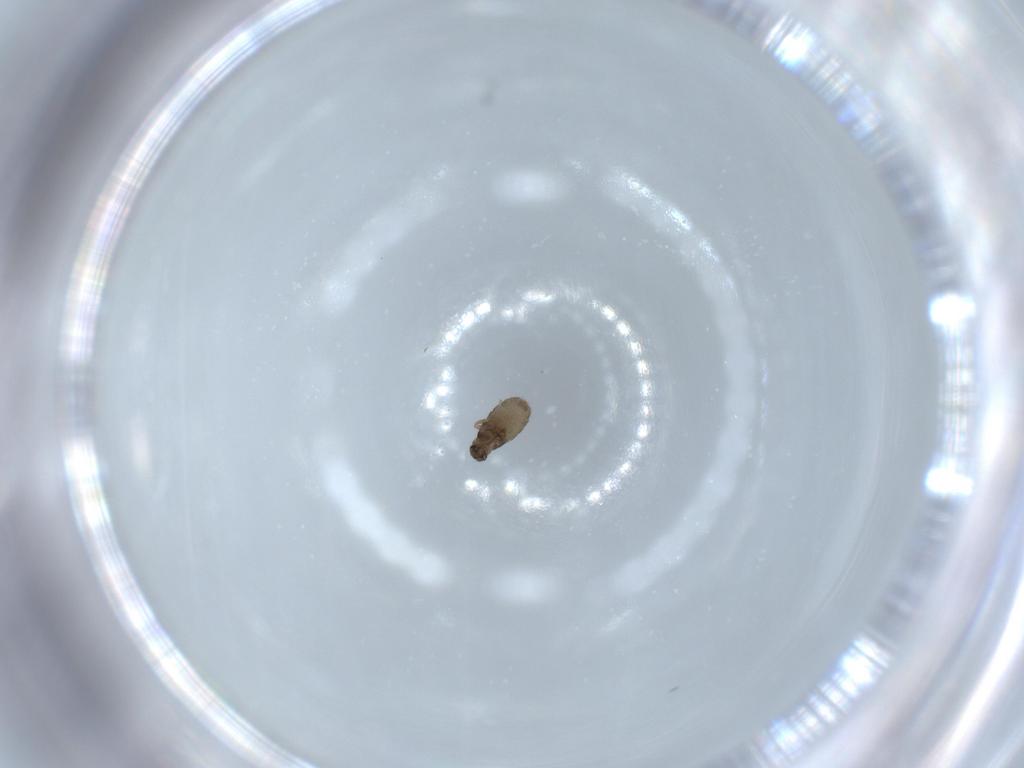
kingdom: Animalia
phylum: Arthropoda
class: Insecta
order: Diptera
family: Phoridae
